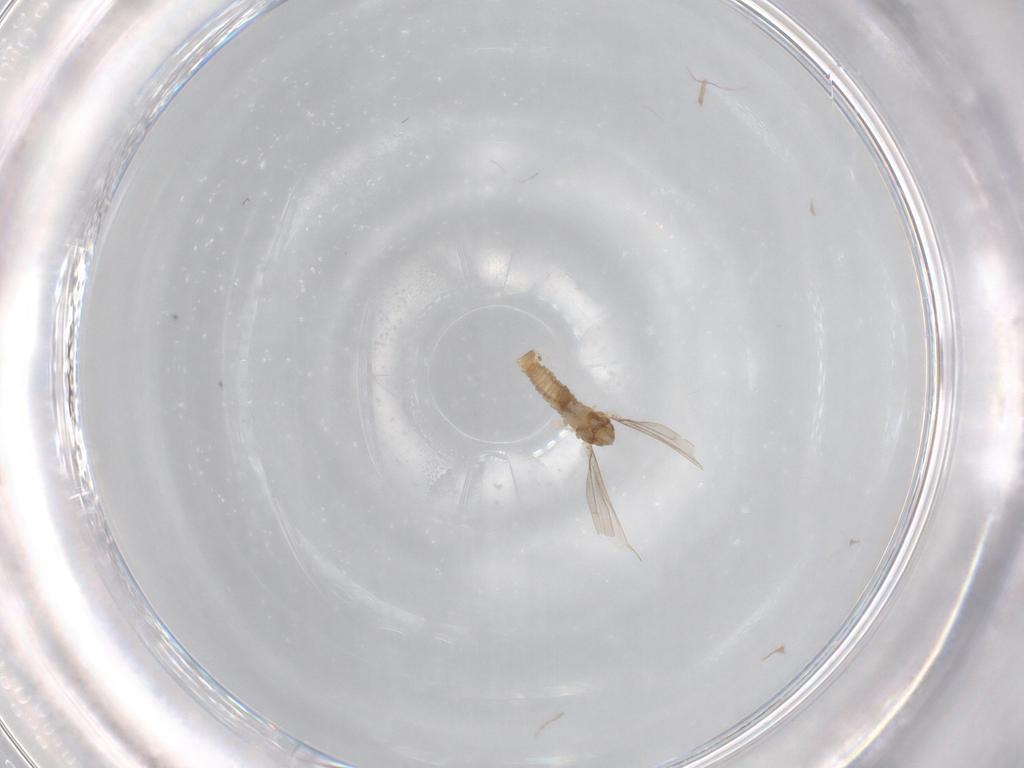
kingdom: Animalia
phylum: Arthropoda
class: Insecta
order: Diptera
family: Cecidomyiidae
